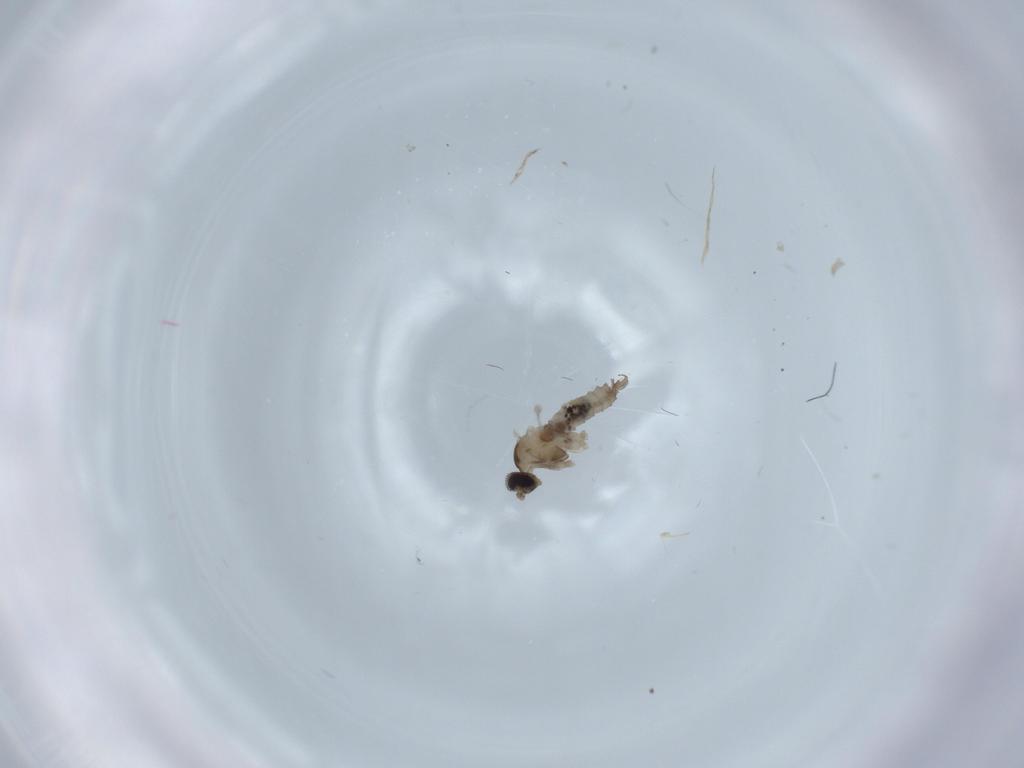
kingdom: Animalia
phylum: Arthropoda
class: Insecta
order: Diptera
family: Cecidomyiidae
